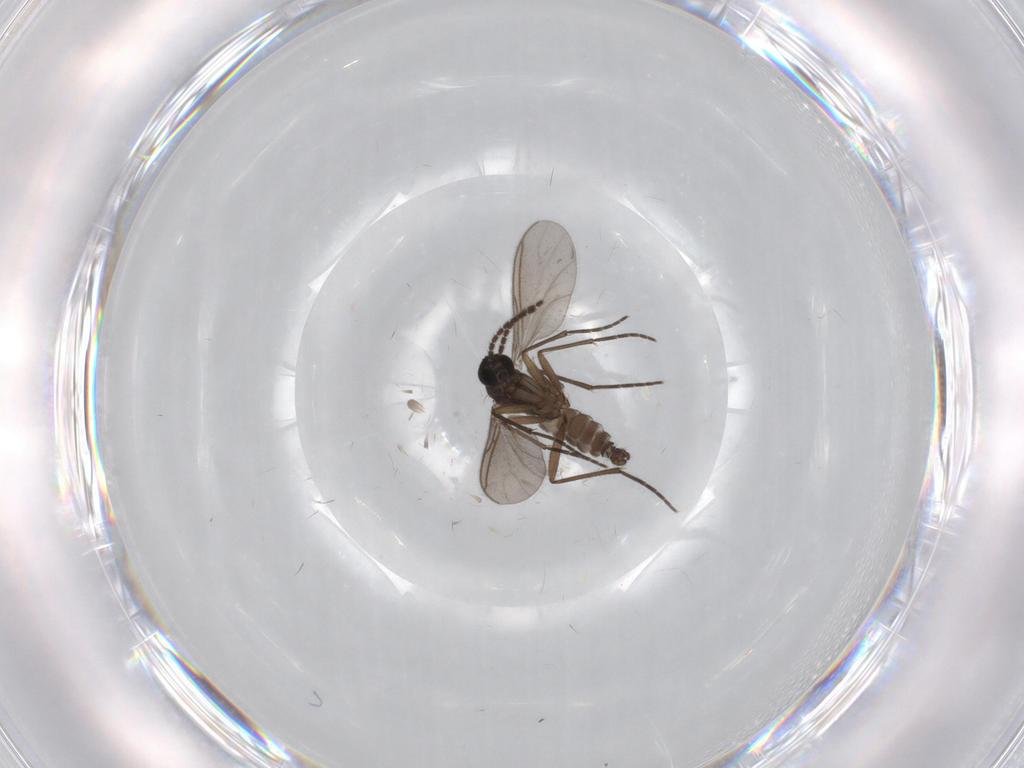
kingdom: Animalia
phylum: Arthropoda
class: Insecta
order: Diptera
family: Sciaridae
